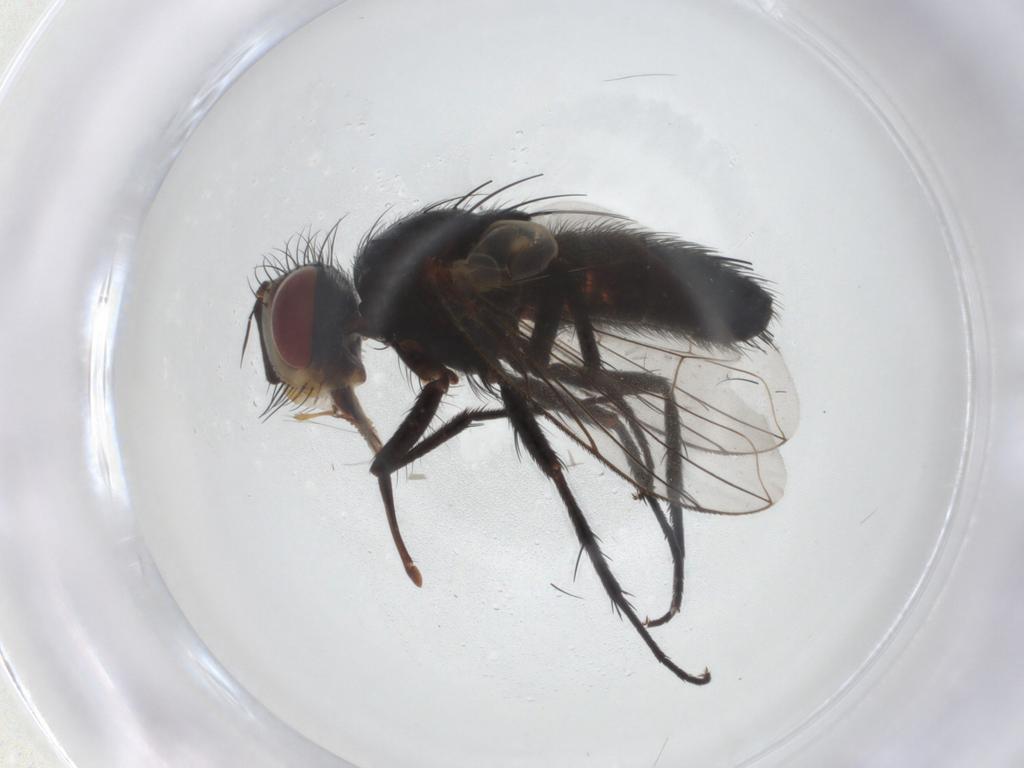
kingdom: Animalia
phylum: Arthropoda
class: Insecta
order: Diptera
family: Tachinidae
